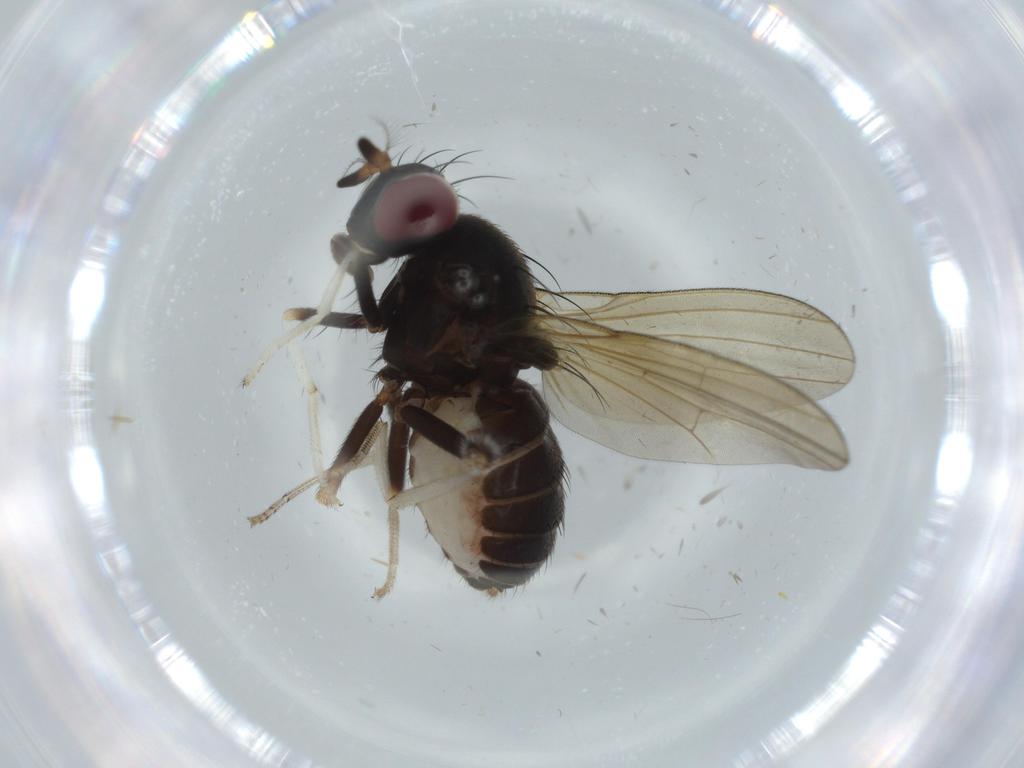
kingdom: Animalia
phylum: Arthropoda
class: Insecta
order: Diptera
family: Lauxaniidae
